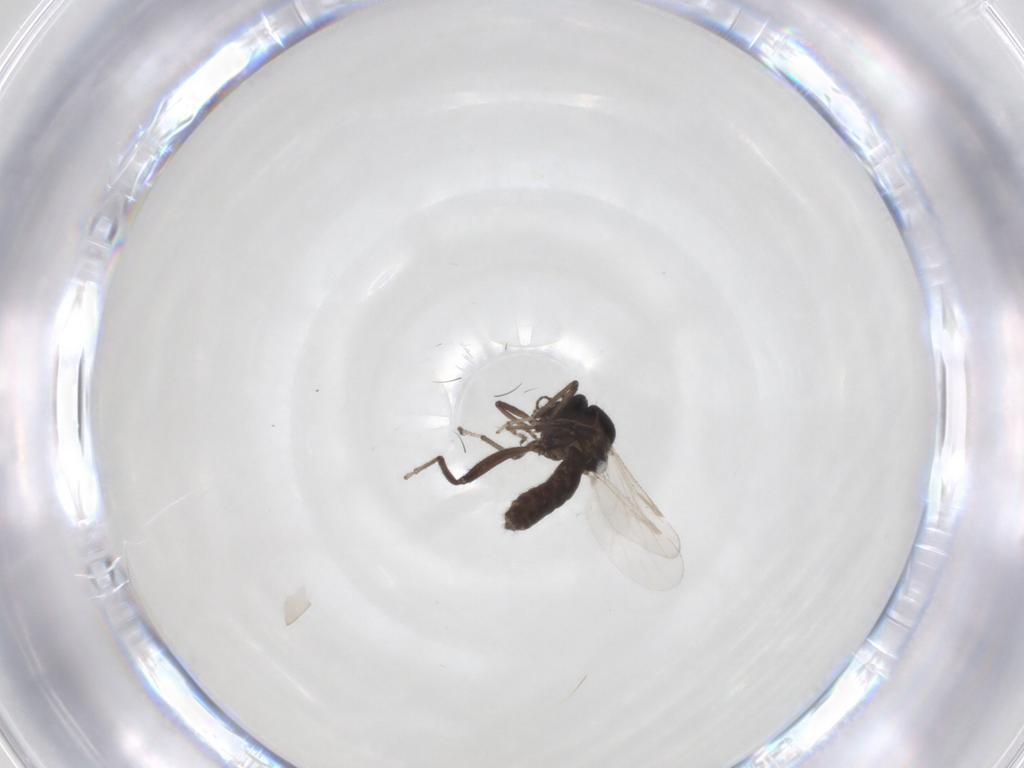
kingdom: Animalia
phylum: Arthropoda
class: Insecta
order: Diptera
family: Ceratopogonidae
